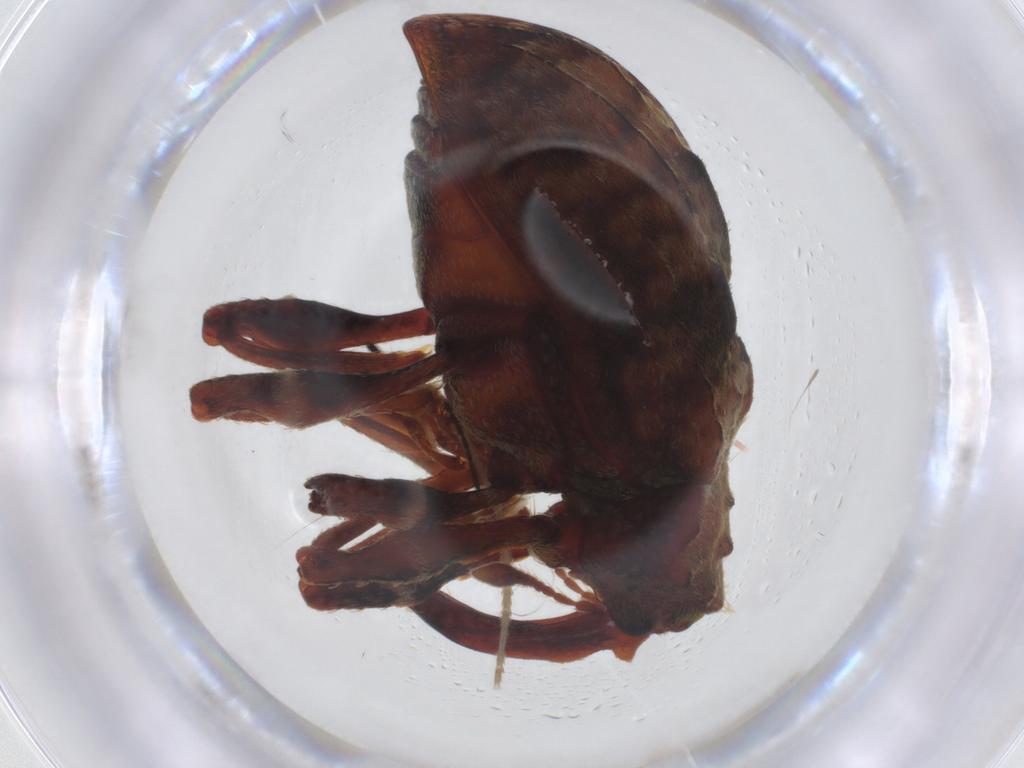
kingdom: Animalia
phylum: Arthropoda
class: Insecta
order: Coleoptera
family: Curculionidae
